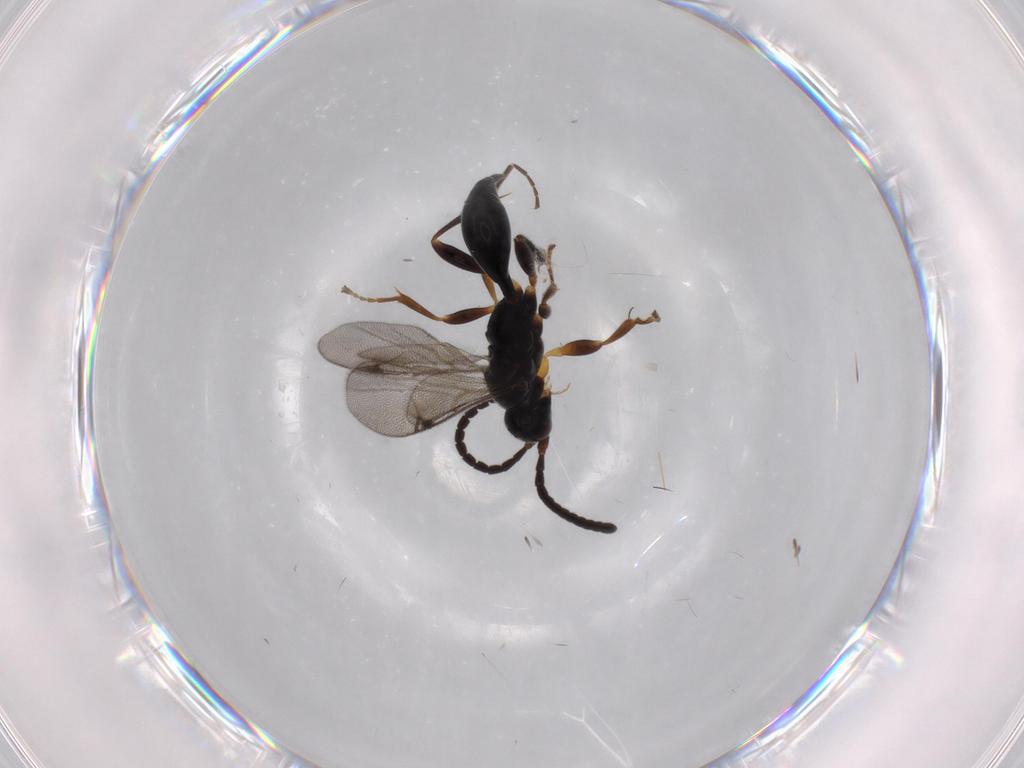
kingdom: Animalia
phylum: Arthropoda
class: Insecta
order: Hymenoptera
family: Proctotrupidae
